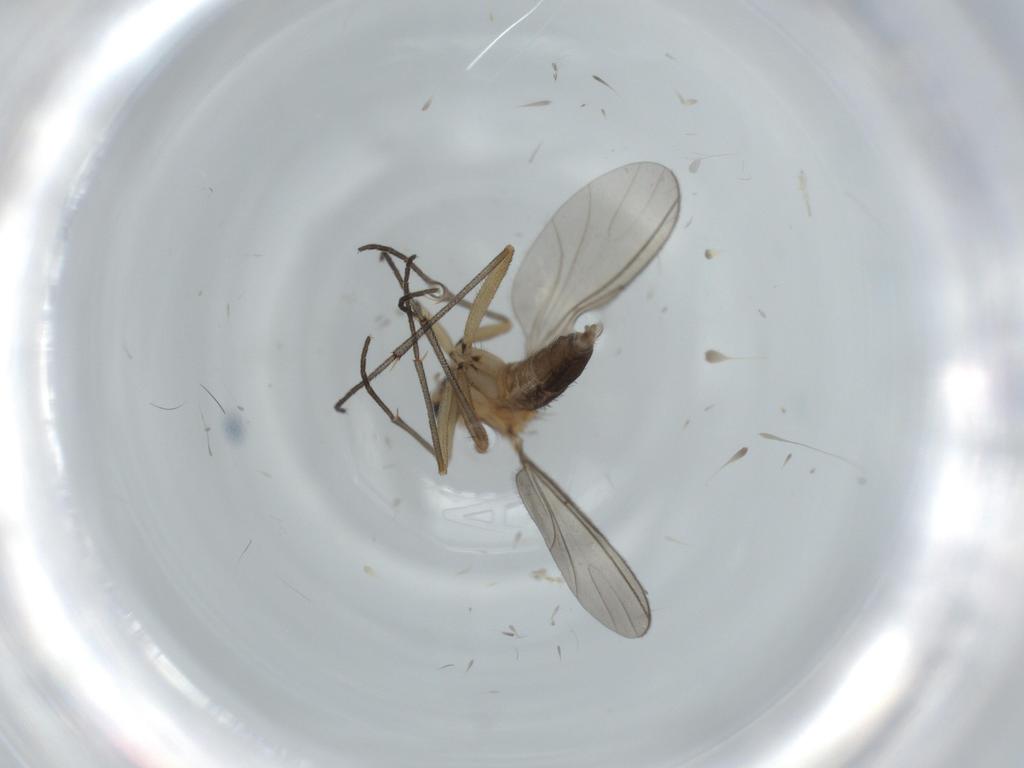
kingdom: Animalia
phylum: Arthropoda
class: Insecta
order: Diptera
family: Sciaridae
